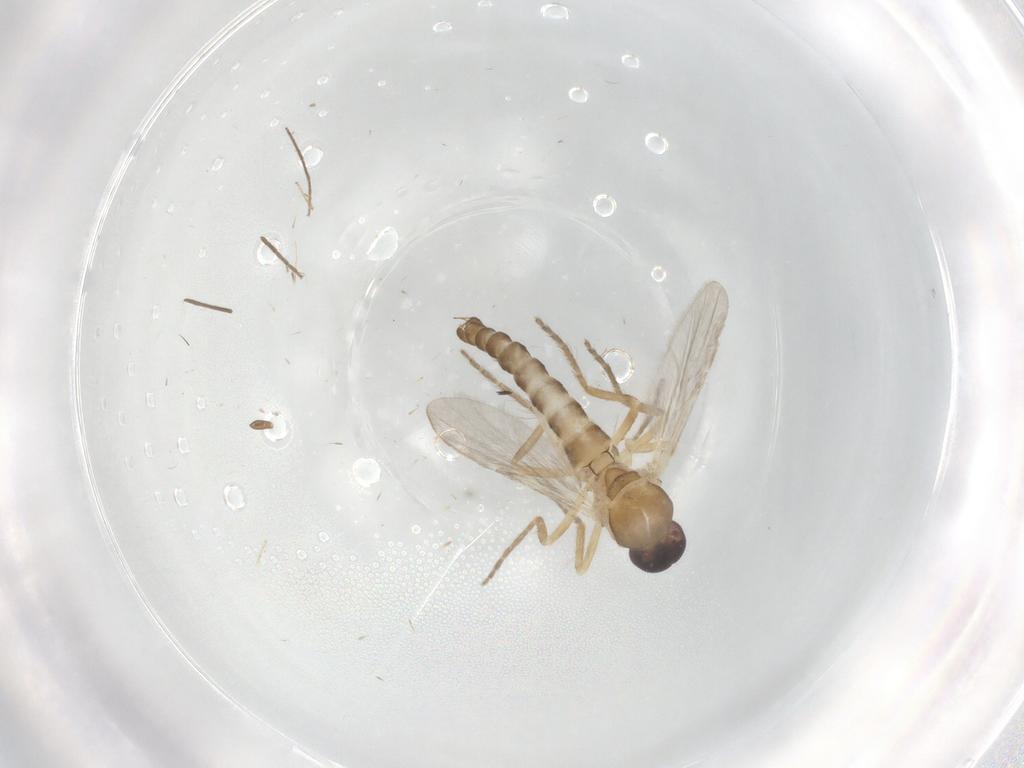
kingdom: Animalia
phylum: Arthropoda
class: Insecta
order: Diptera
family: Ceratopogonidae
